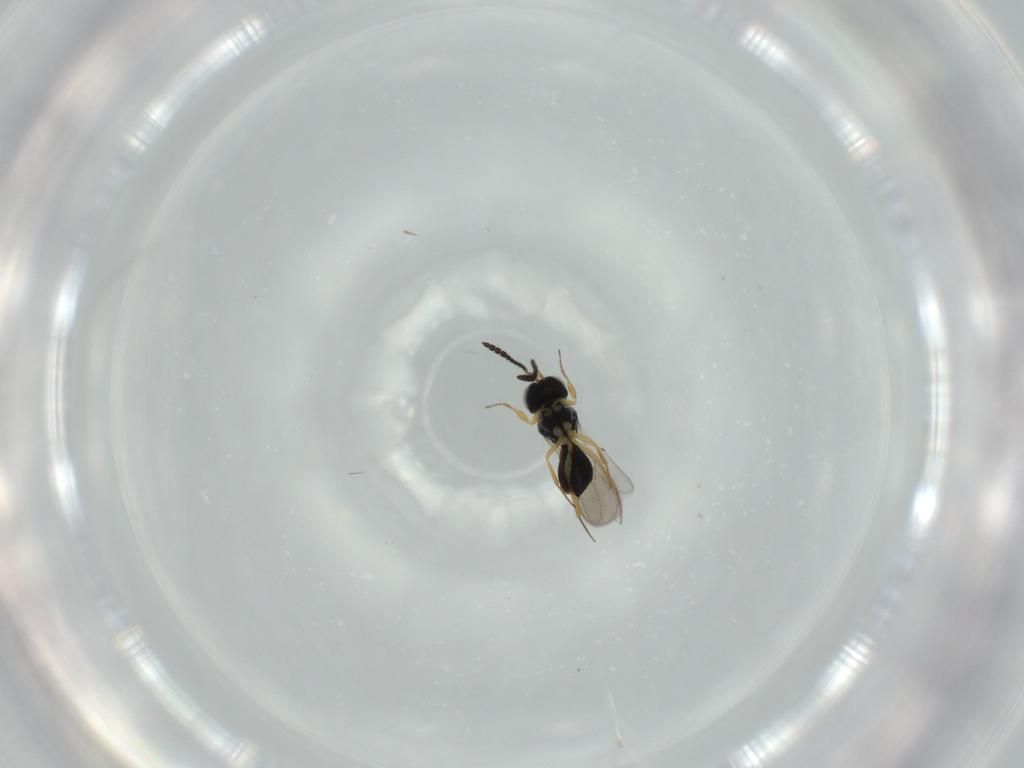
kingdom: Animalia
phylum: Arthropoda
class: Insecta
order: Hymenoptera
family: Scelionidae
